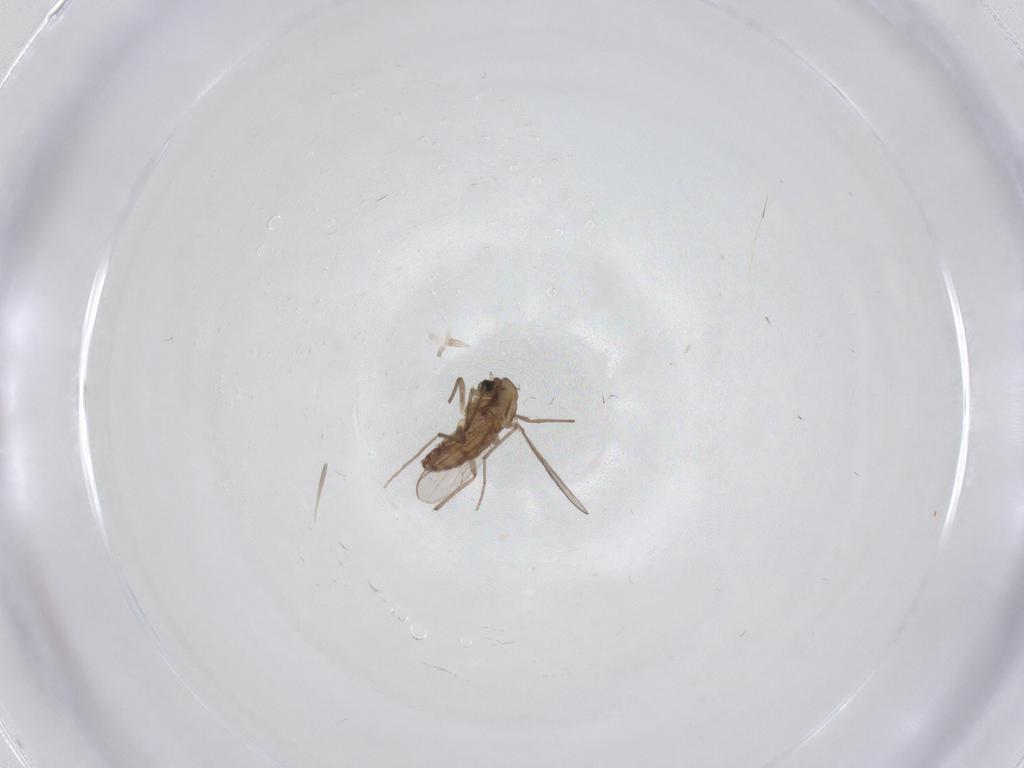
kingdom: Animalia
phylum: Arthropoda
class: Insecta
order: Diptera
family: Chironomidae
